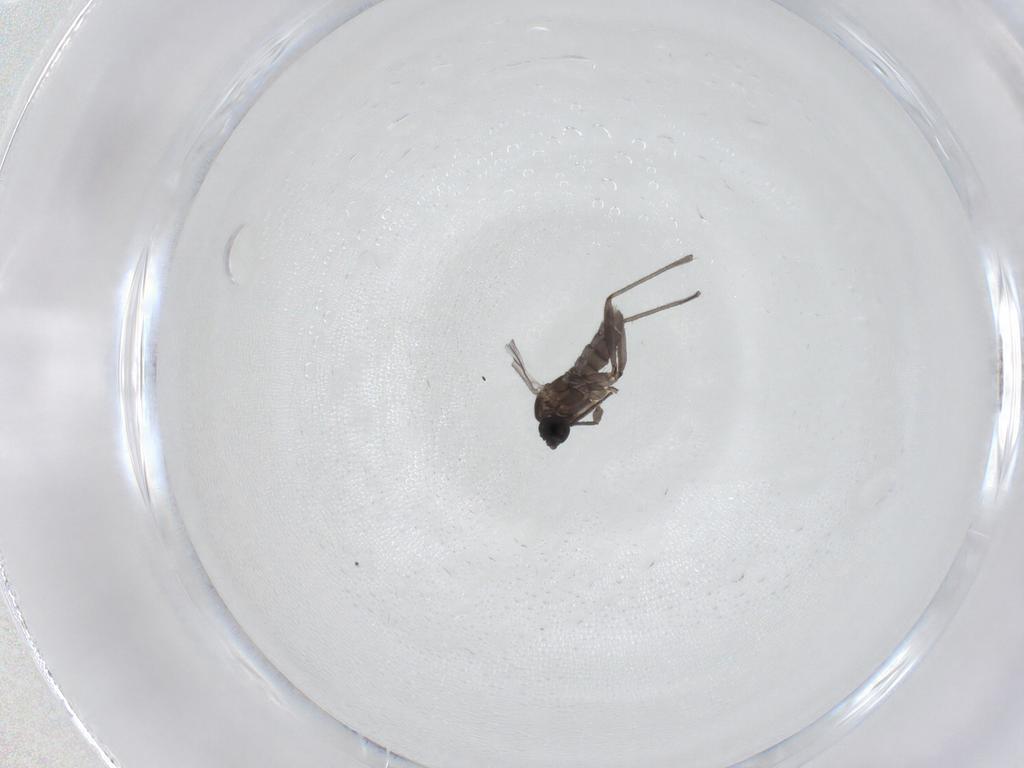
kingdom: Animalia
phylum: Arthropoda
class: Insecta
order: Diptera
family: Sciaridae
